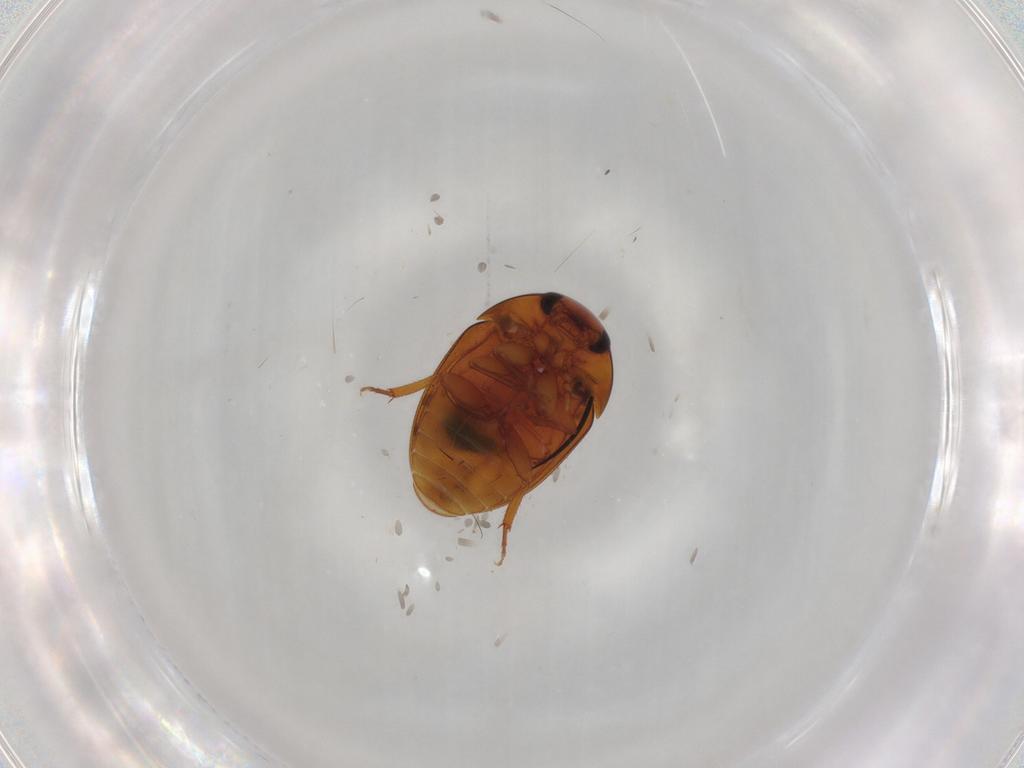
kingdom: Animalia
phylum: Arthropoda
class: Insecta
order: Coleoptera
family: Phalacridae
